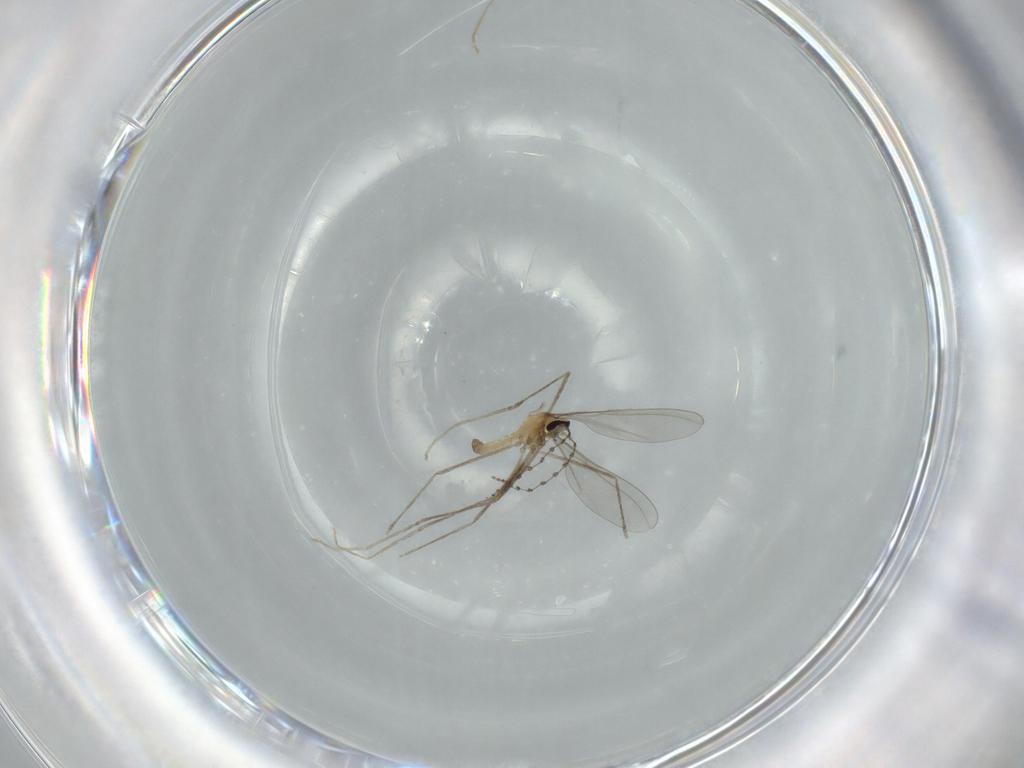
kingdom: Animalia
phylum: Arthropoda
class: Insecta
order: Diptera
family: Cecidomyiidae
